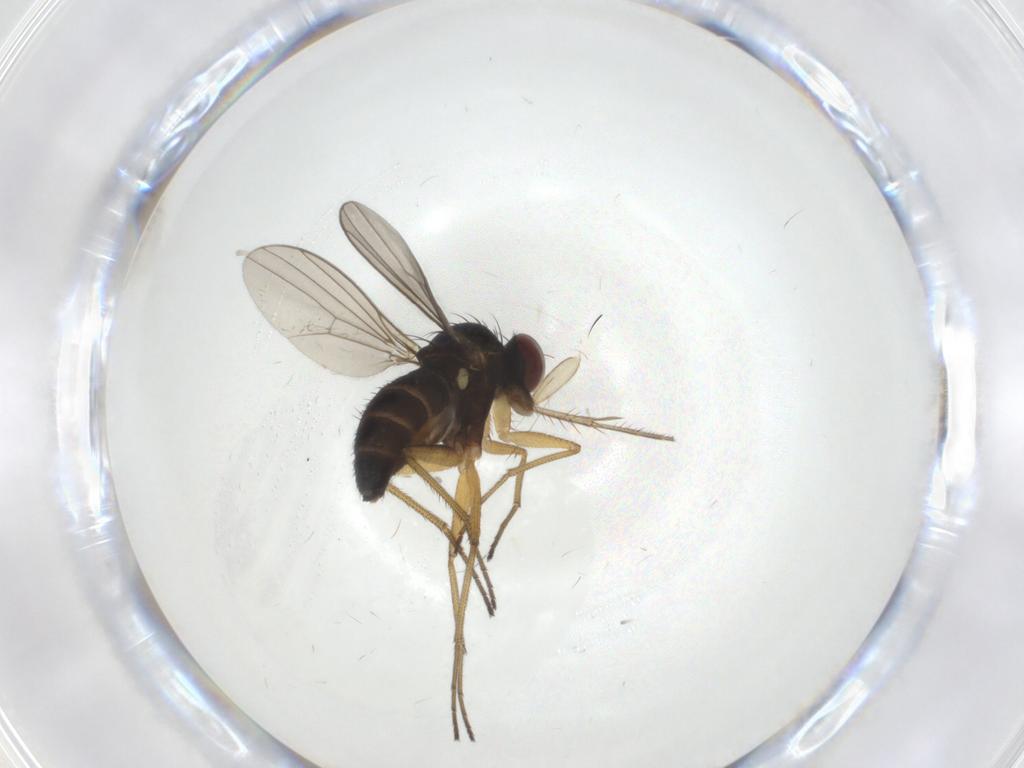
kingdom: Animalia
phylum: Arthropoda
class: Insecta
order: Diptera
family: Dolichopodidae
